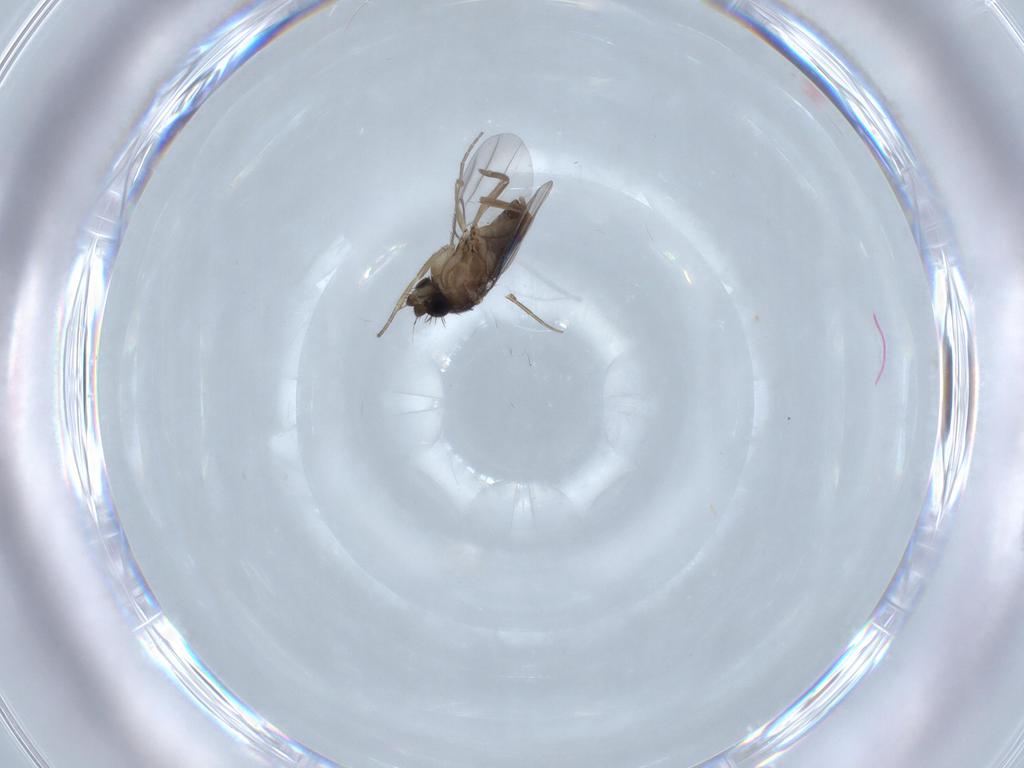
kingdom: Animalia
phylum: Arthropoda
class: Insecta
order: Diptera
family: Phoridae
